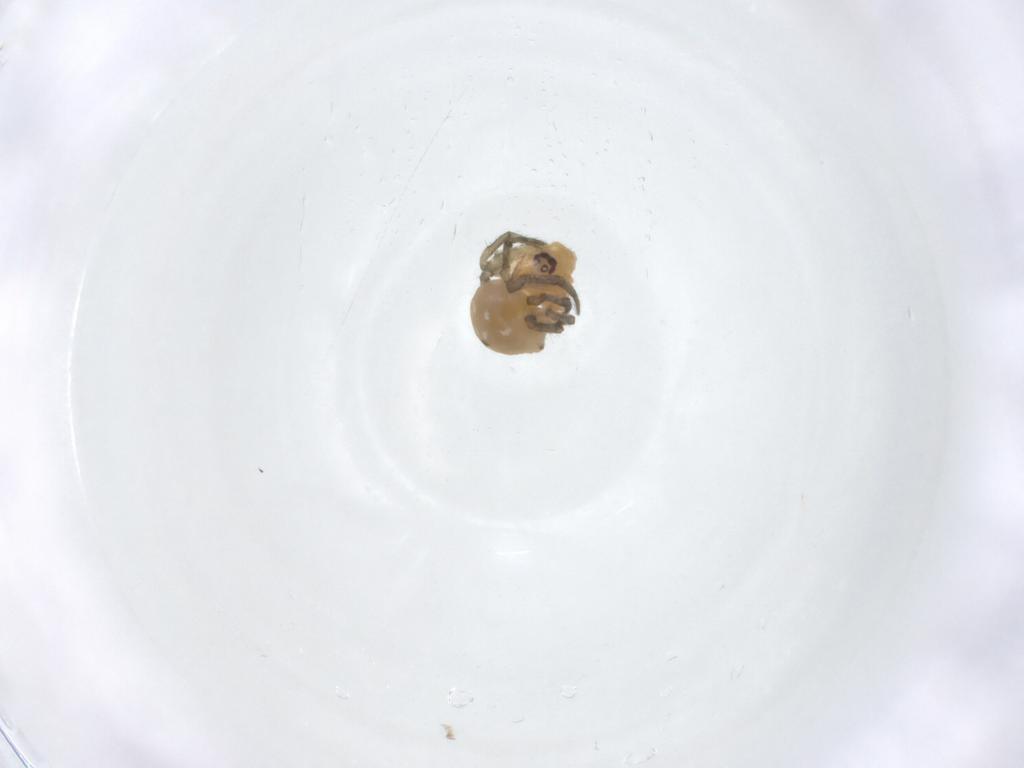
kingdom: Animalia
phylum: Arthropoda
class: Arachnida
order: Araneae
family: Theridiidae
